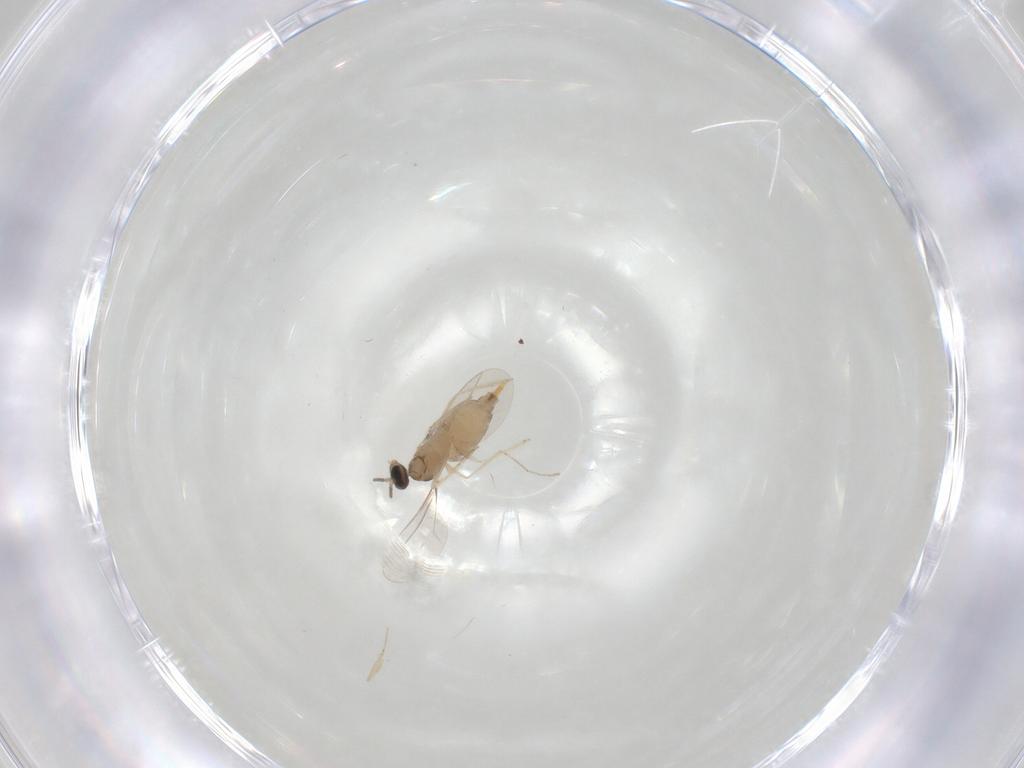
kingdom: Animalia
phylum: Arthropoda
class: Insecta
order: Diptera
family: Cecidomyiidae
